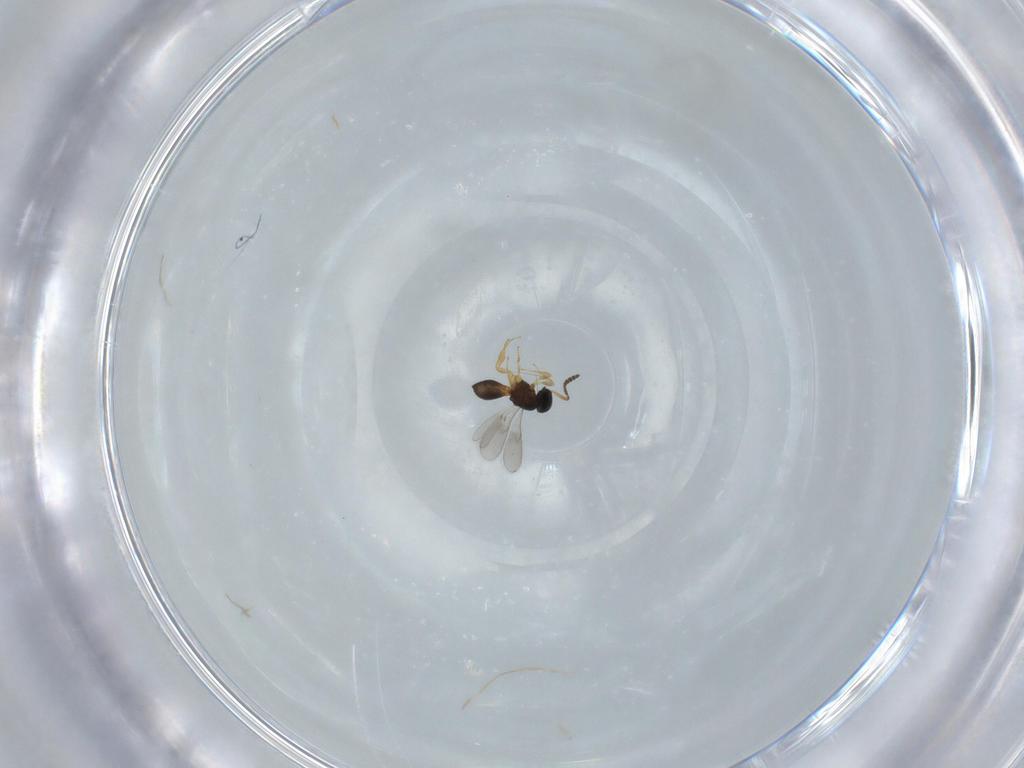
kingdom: Animalia
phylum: Arthropoda
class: Insecta
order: Hymenoptera
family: Scelionidae
